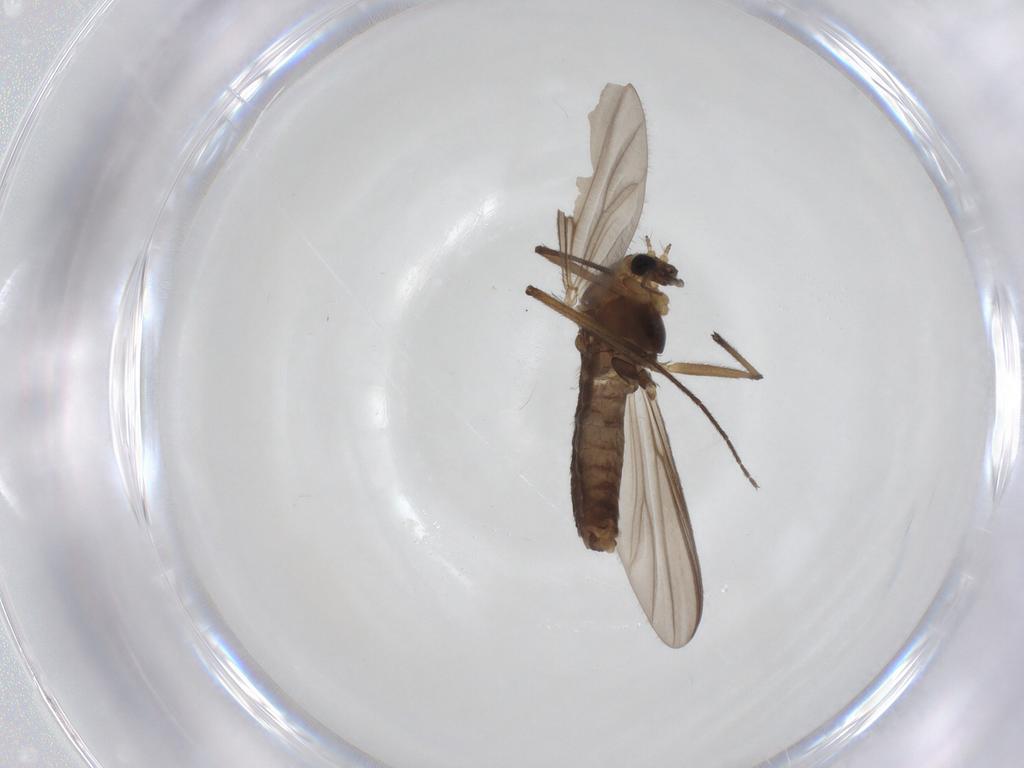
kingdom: Animalia
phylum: Arthropoda
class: Insecta
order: Diptera
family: Chironomidae
